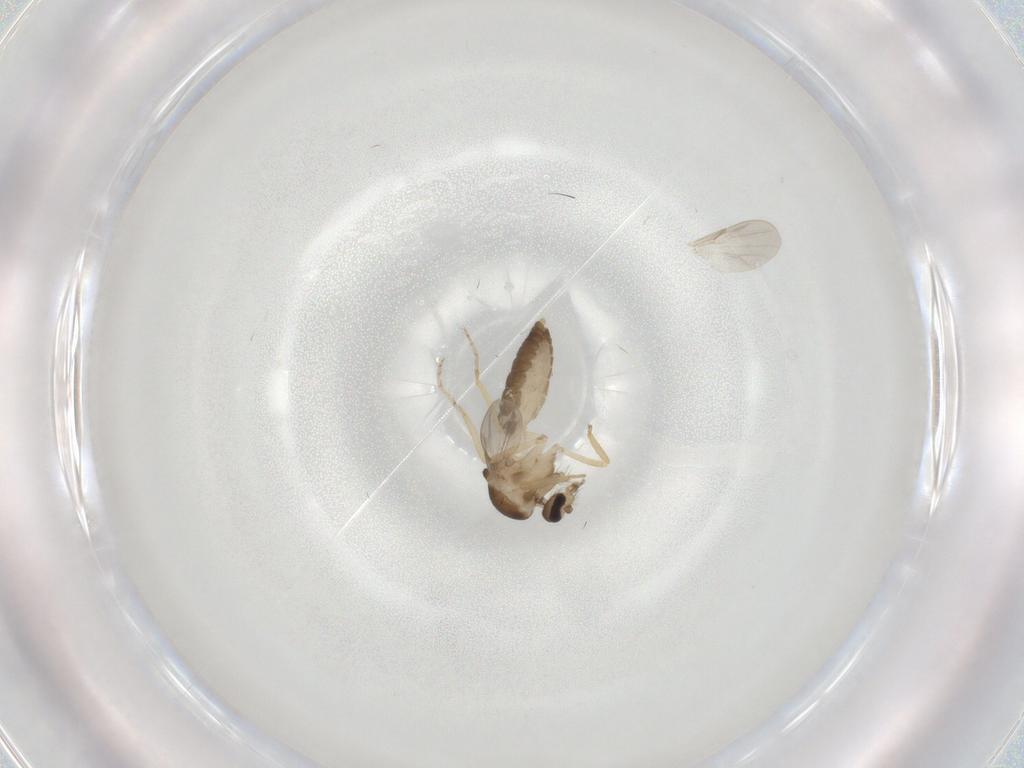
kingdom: Animalia
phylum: Arthropoda
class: Insecta
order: Diptera
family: Ceratopogonidae
